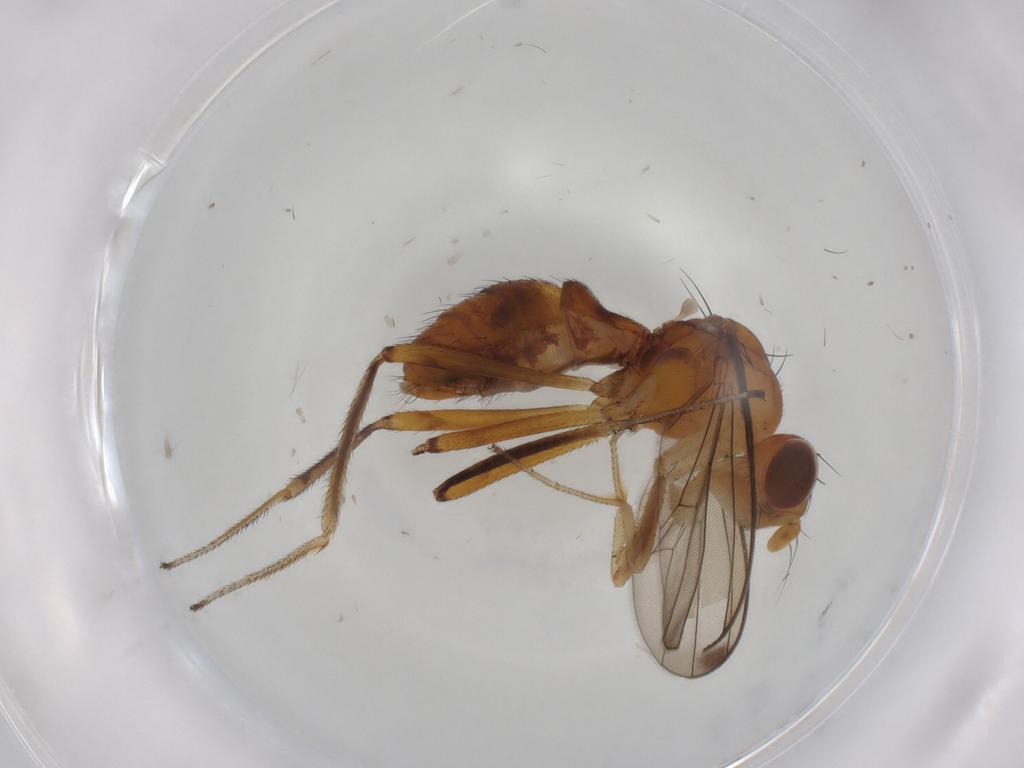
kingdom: Animalia
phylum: Arthropoda
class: Insecta
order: Diptera
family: Sepsidae
